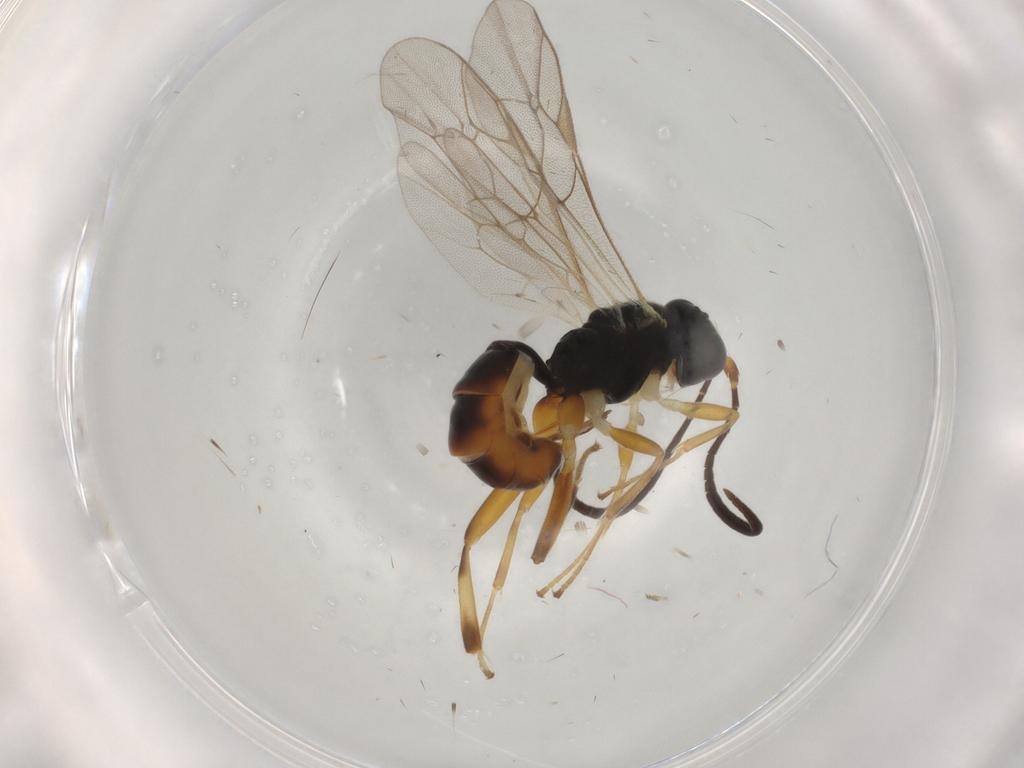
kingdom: Animalia
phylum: Arthropoda
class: Insecta
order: Hymenoptera
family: Ichneumonidae
